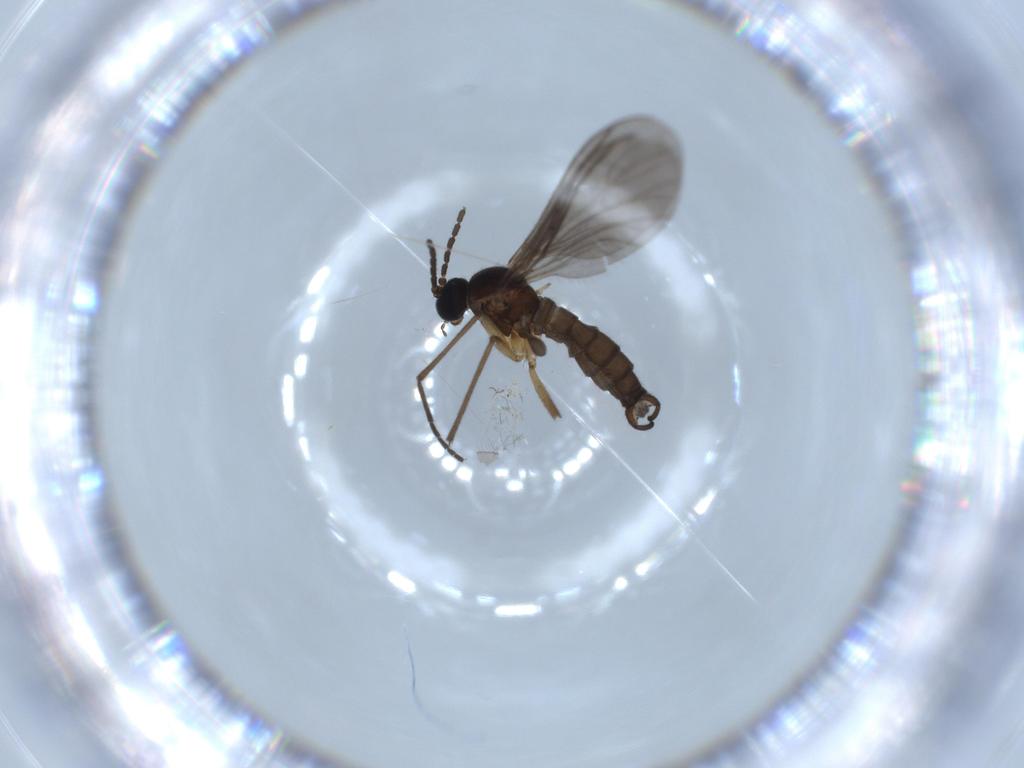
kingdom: Animalia
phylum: Arthropoda
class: Insecta
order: Diptera
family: Sciaridae
